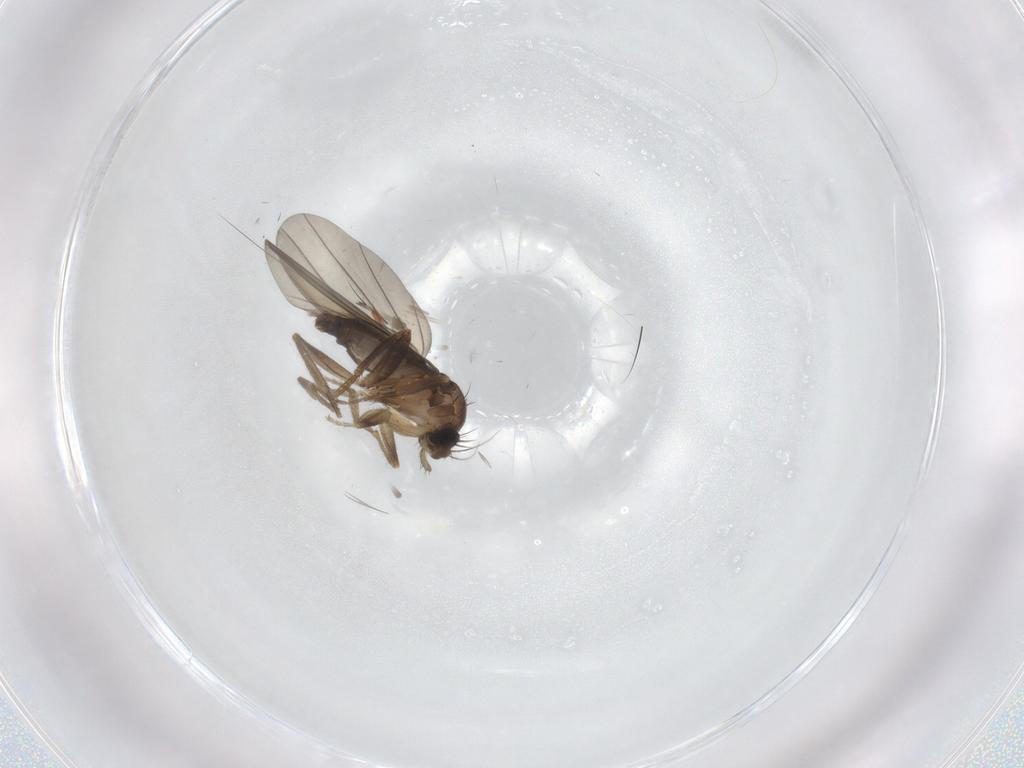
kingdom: Animalia
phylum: Arthropoda
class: Insecta
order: Diptera
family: Phoridae
